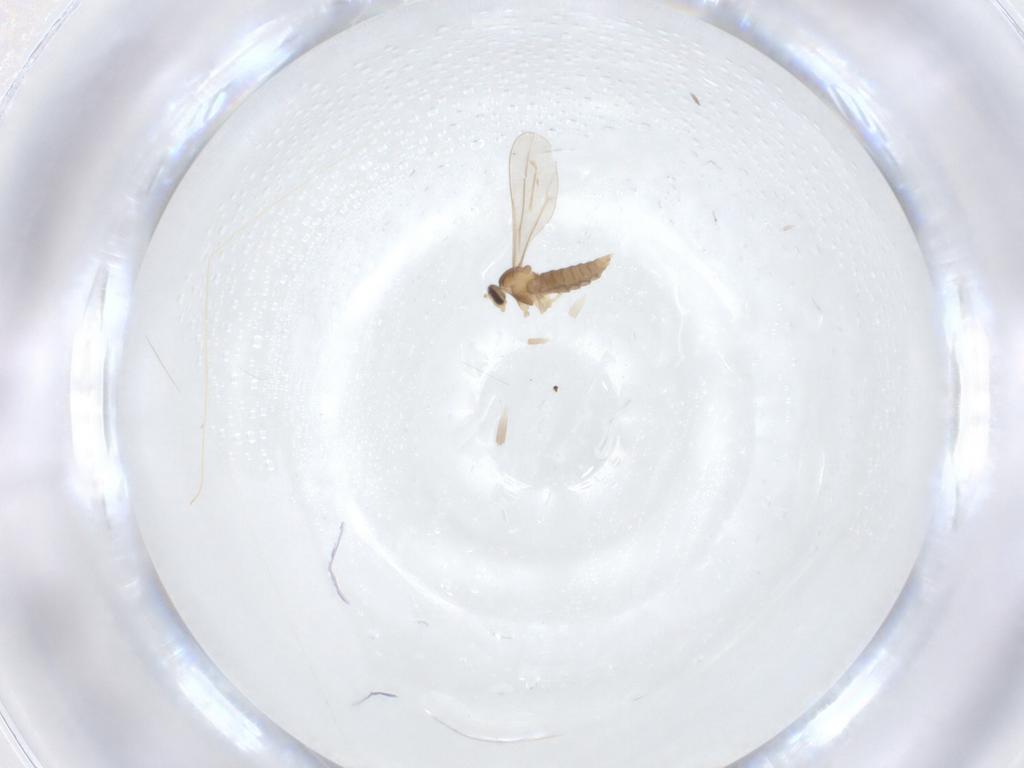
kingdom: Animalia
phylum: Arthropoda
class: Insecta
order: Diptera
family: Cecidomyiidae
